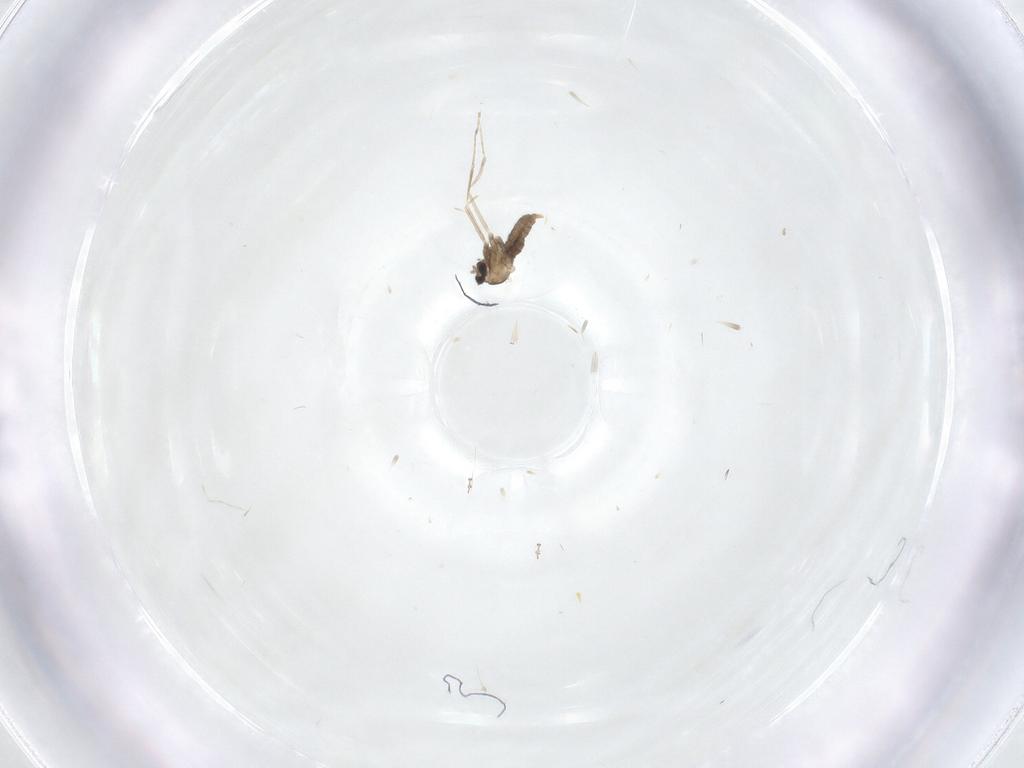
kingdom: Animalia
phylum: Arthropoda
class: Insecta
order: Diptera
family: Cecidomyiidae
